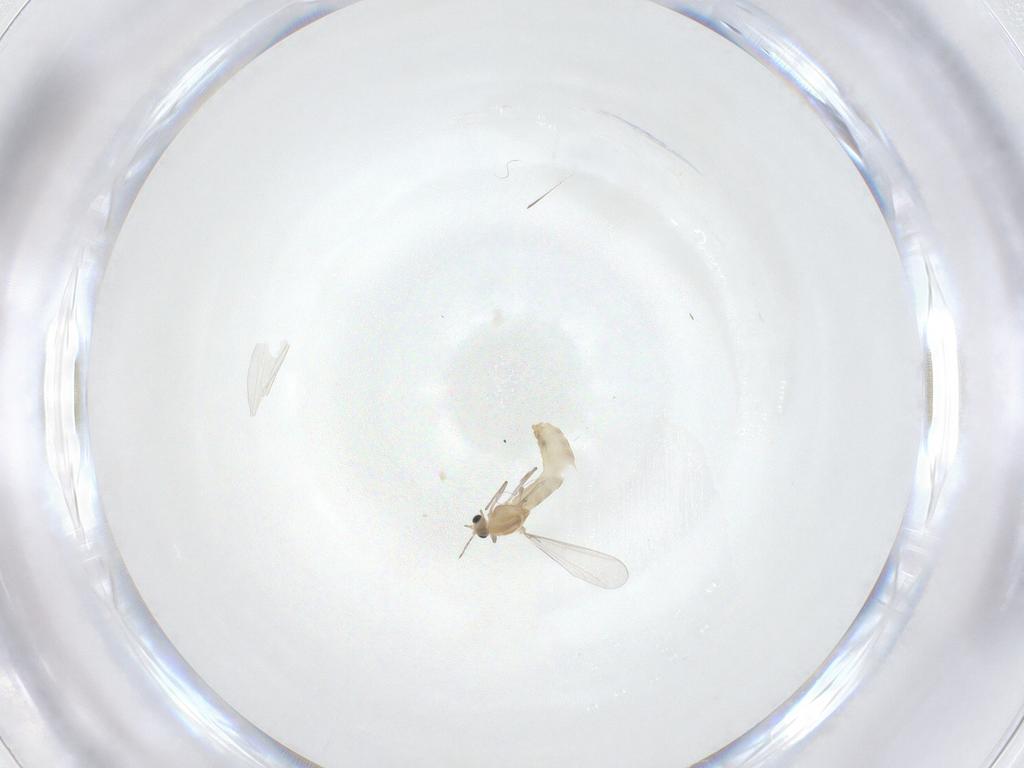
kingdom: Animalia
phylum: Arthropoda
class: Insecta
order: Diptera
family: Chironomidae
